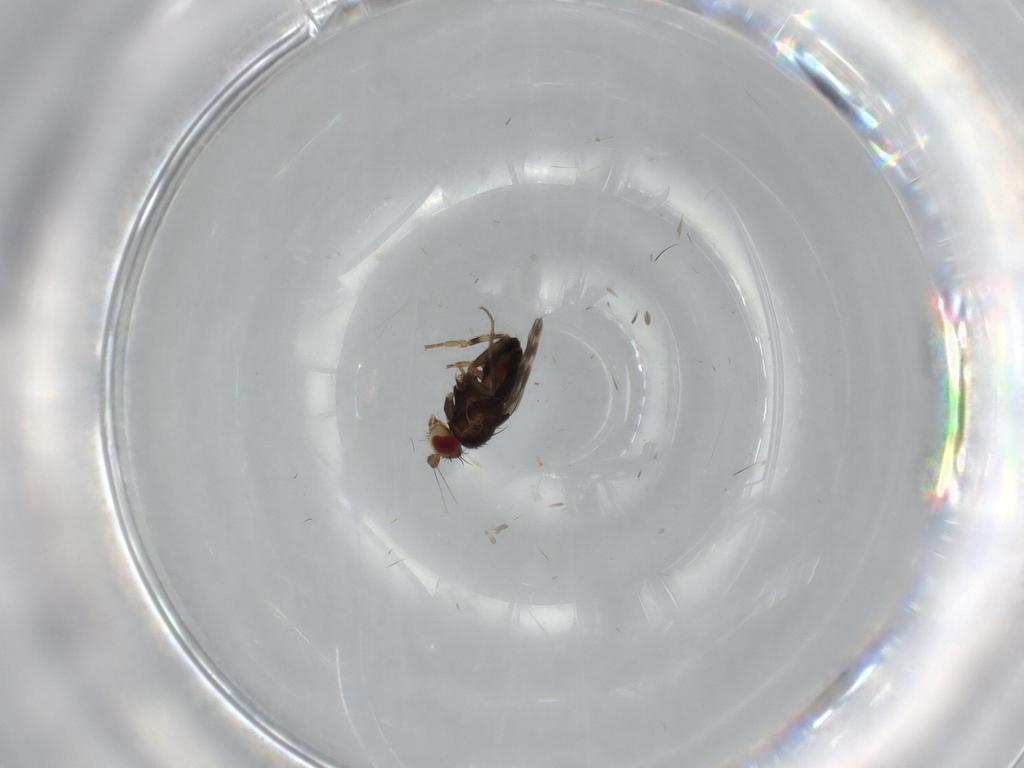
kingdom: Animalia
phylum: Arthropoda
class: Insecta
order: Diptera
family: Sphaeroceridae
